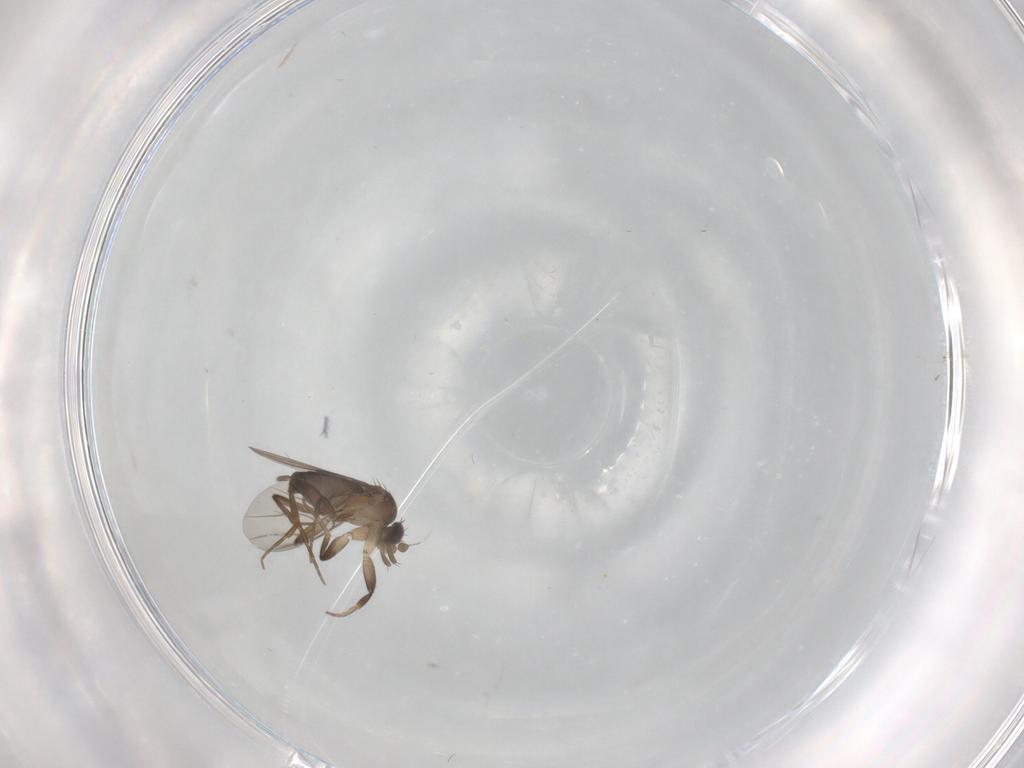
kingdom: Animalia
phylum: Arthropoda
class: Insecta
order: Diptera
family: Phoridae
